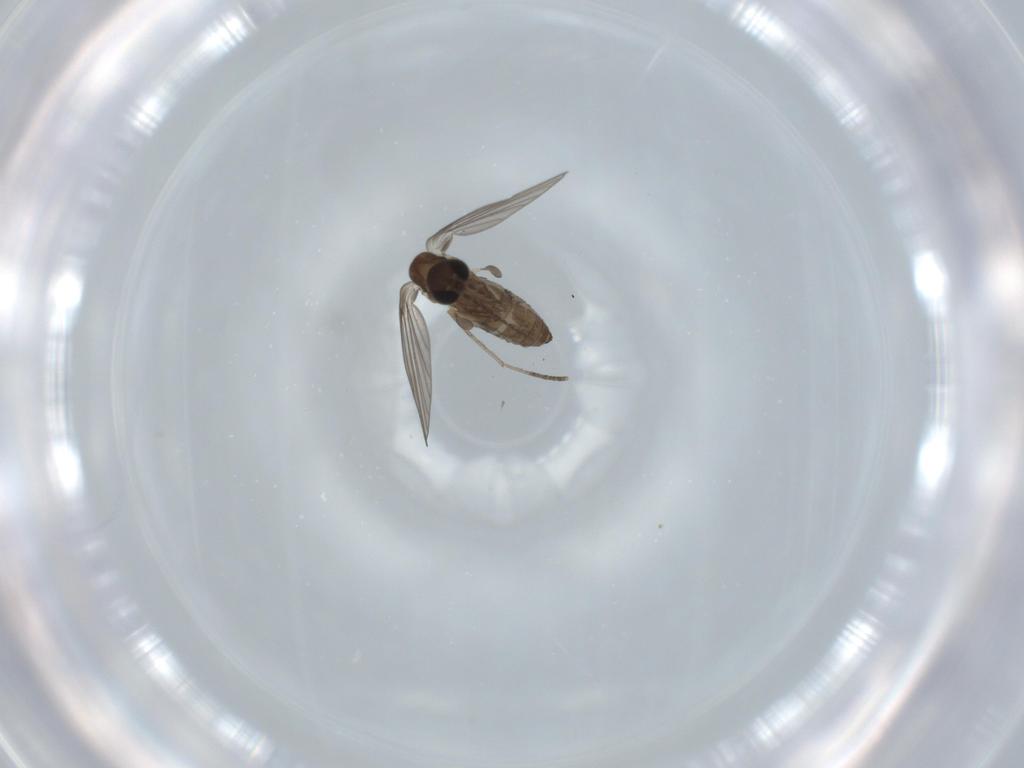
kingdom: Animalia
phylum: Arthropoda
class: Insecta
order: Diptera
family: Psychodidae
